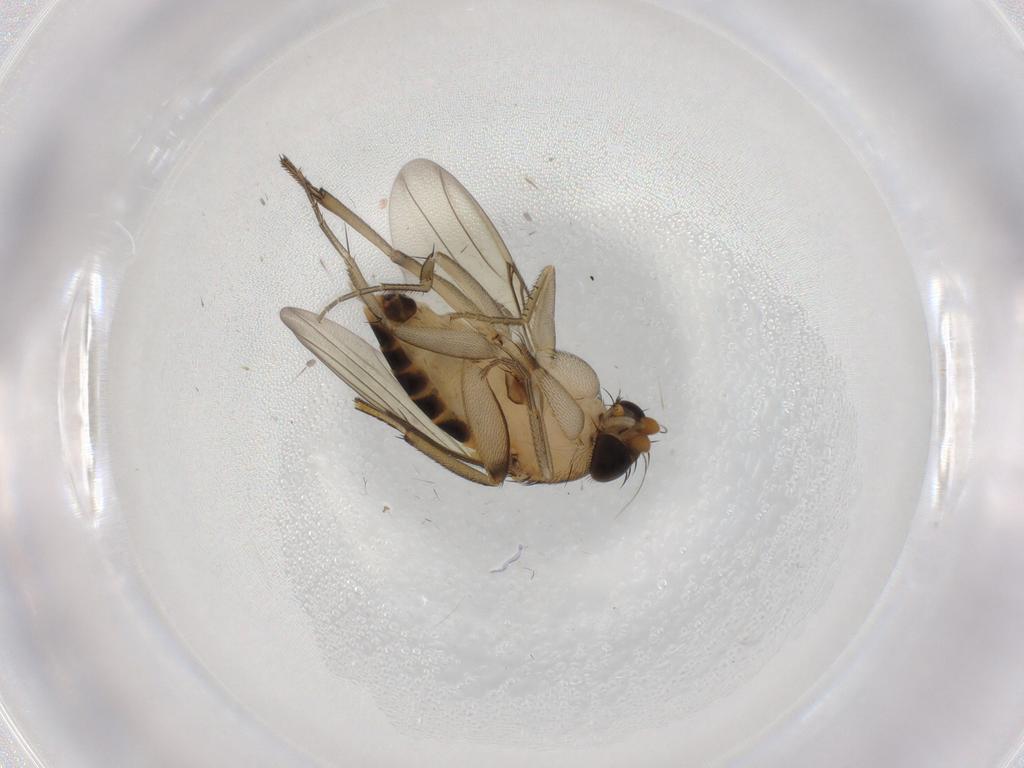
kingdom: Animalia
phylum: Arthropoda
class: Insecta
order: Diptera
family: Phoridae
